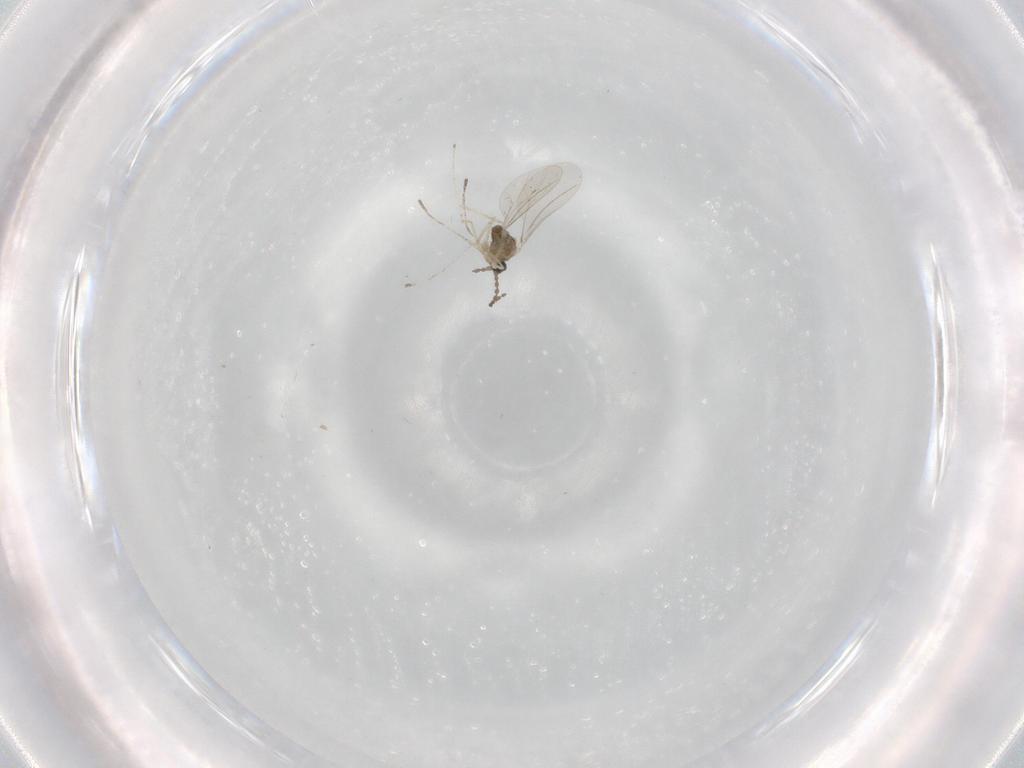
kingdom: Animalia
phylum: Arthropoda
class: Insecta
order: Diptera
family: Cecidomyiidae
